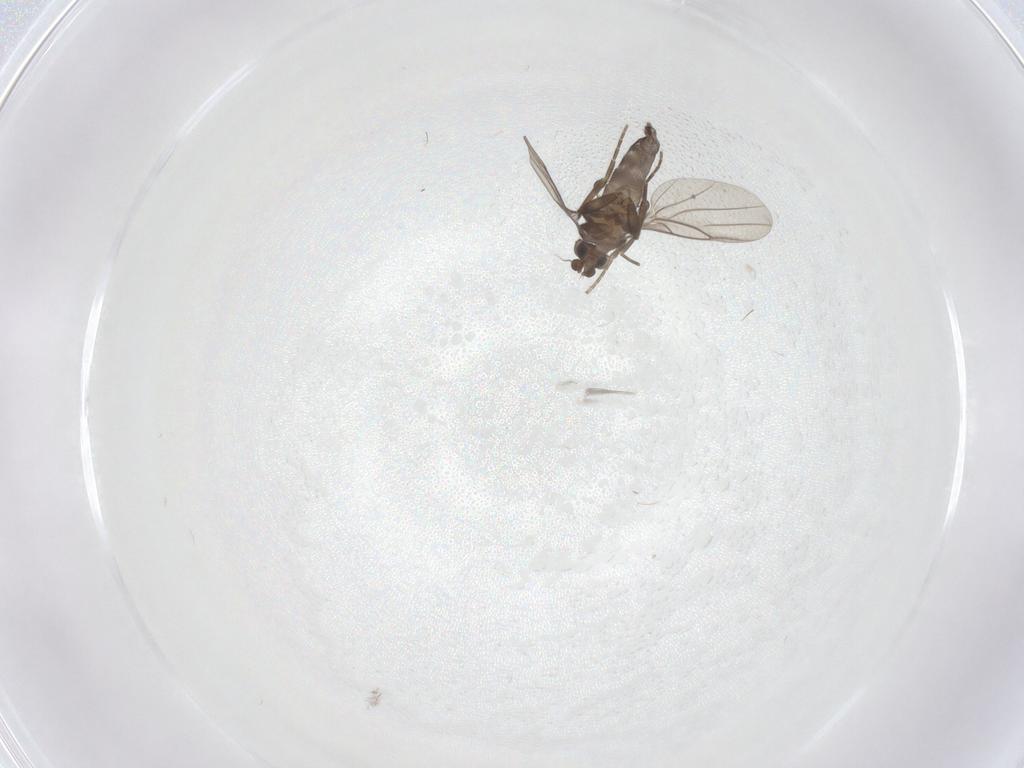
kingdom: Animalia
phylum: Arthropoda
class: Insecta
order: Diptera
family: Phoridae
